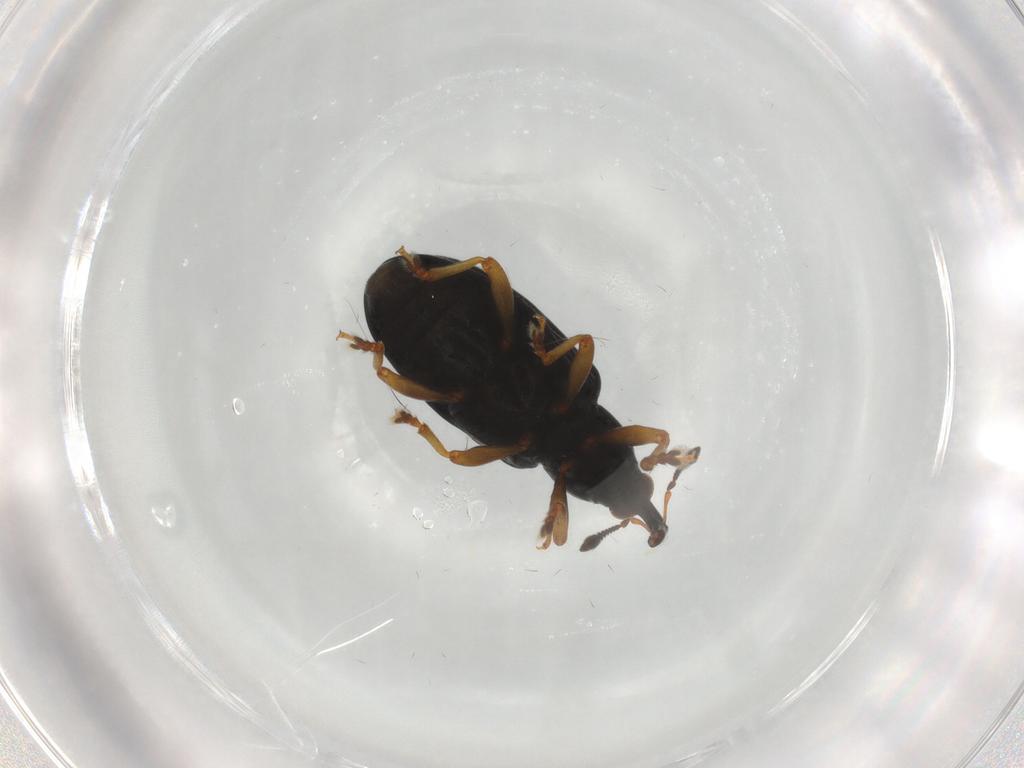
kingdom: Animalia
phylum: Arthropoda
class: Insecta
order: Coleoptera
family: Curculionidae
